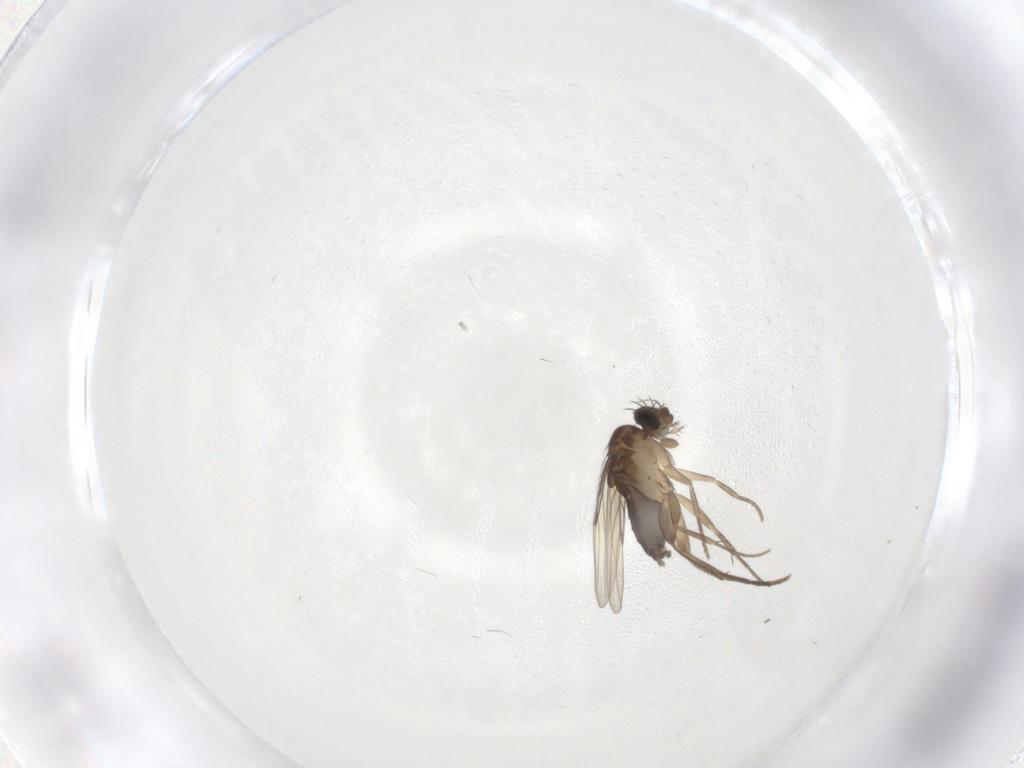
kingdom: Animalia
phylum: Arthropoda
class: Insecta
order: Diptera
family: Phoridae
